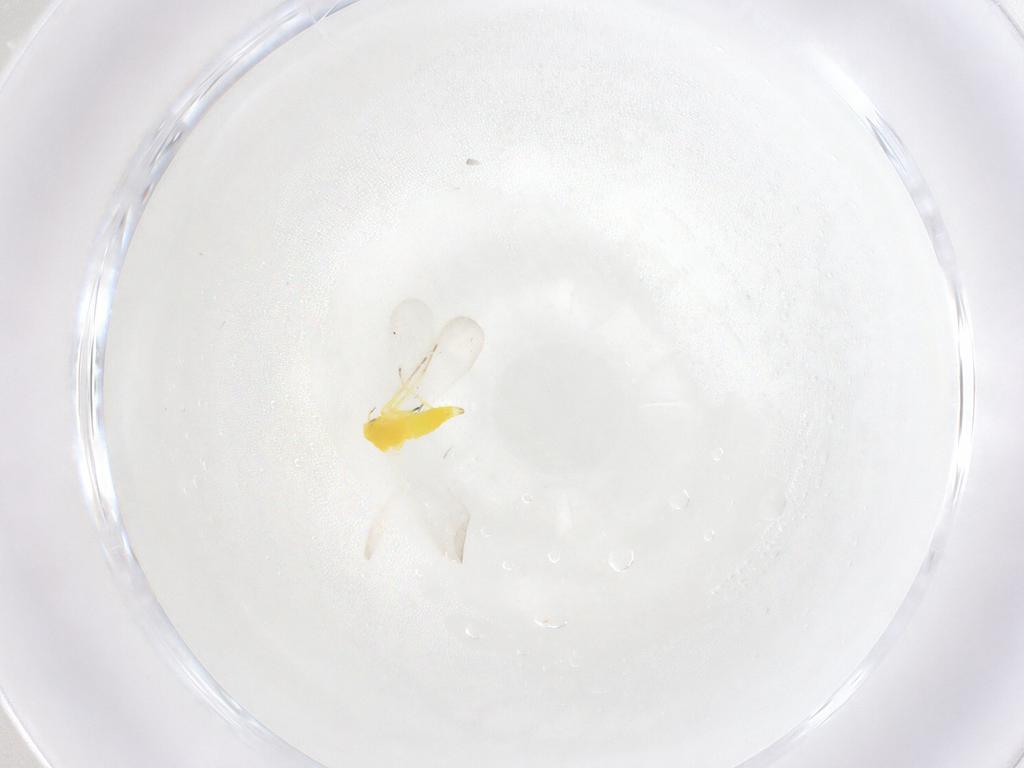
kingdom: Animalia
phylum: Arthropoda
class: Insecta
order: Hemiptera
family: Aleyrodidae
